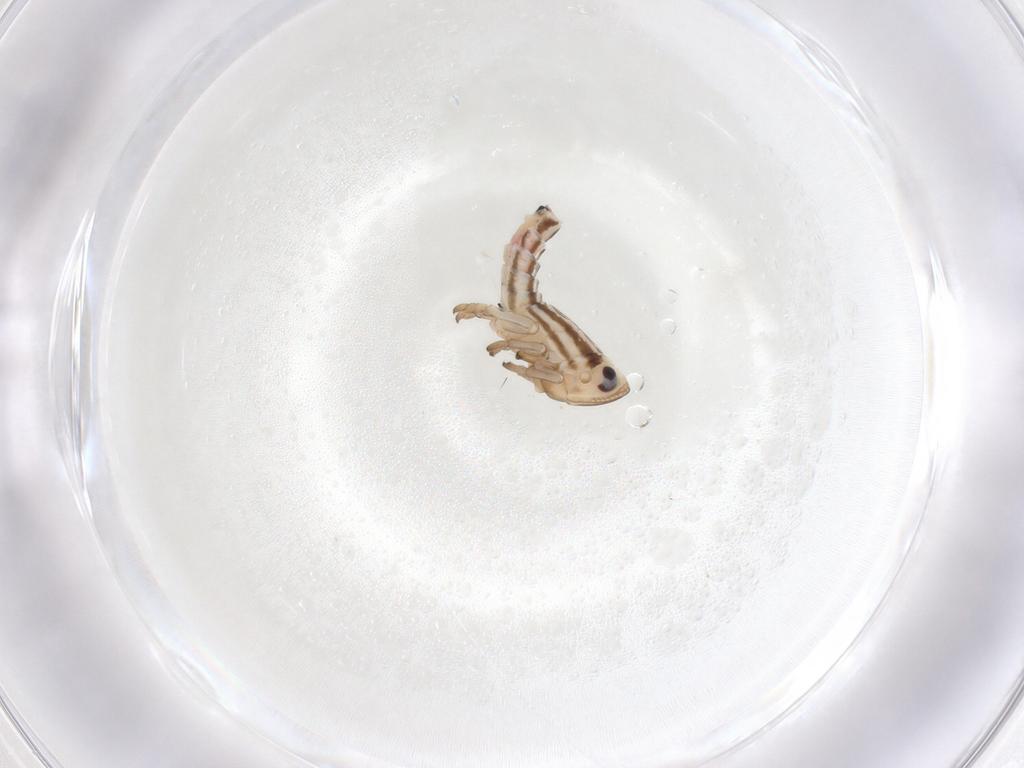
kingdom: Animalia
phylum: Arthropoda
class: Insecta
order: Hemiptera
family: Fulgoroidea_incertae_sedis
